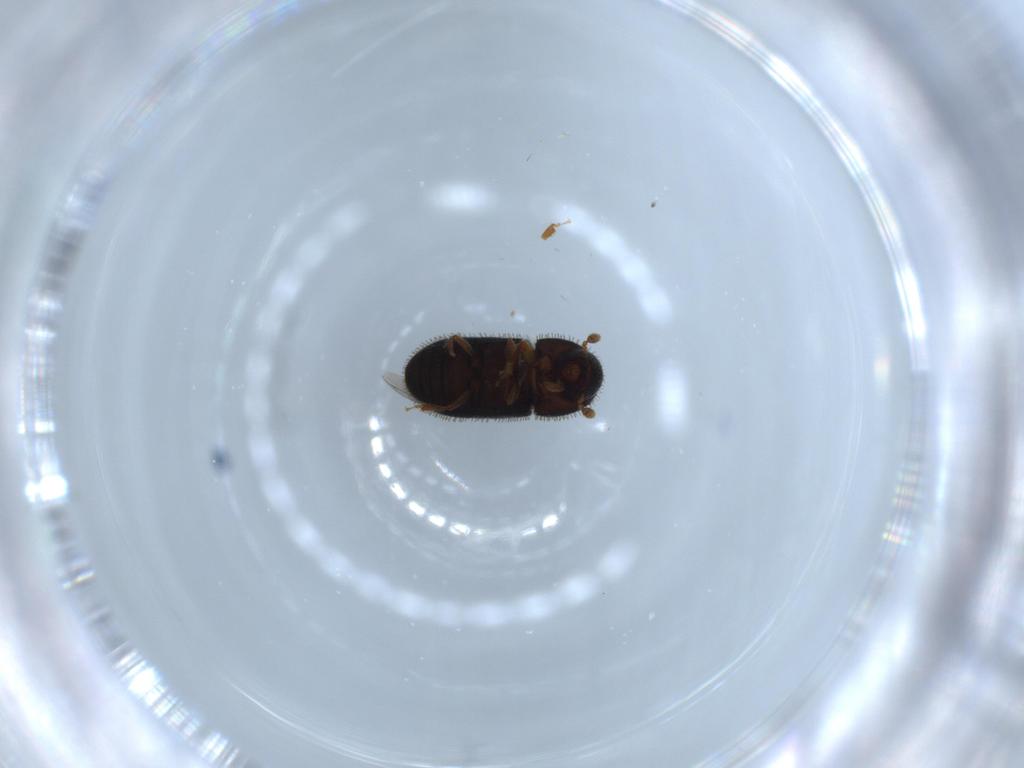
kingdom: Animalia
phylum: Arthropoda
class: Insecta
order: Coleoptera
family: Curculionidae
